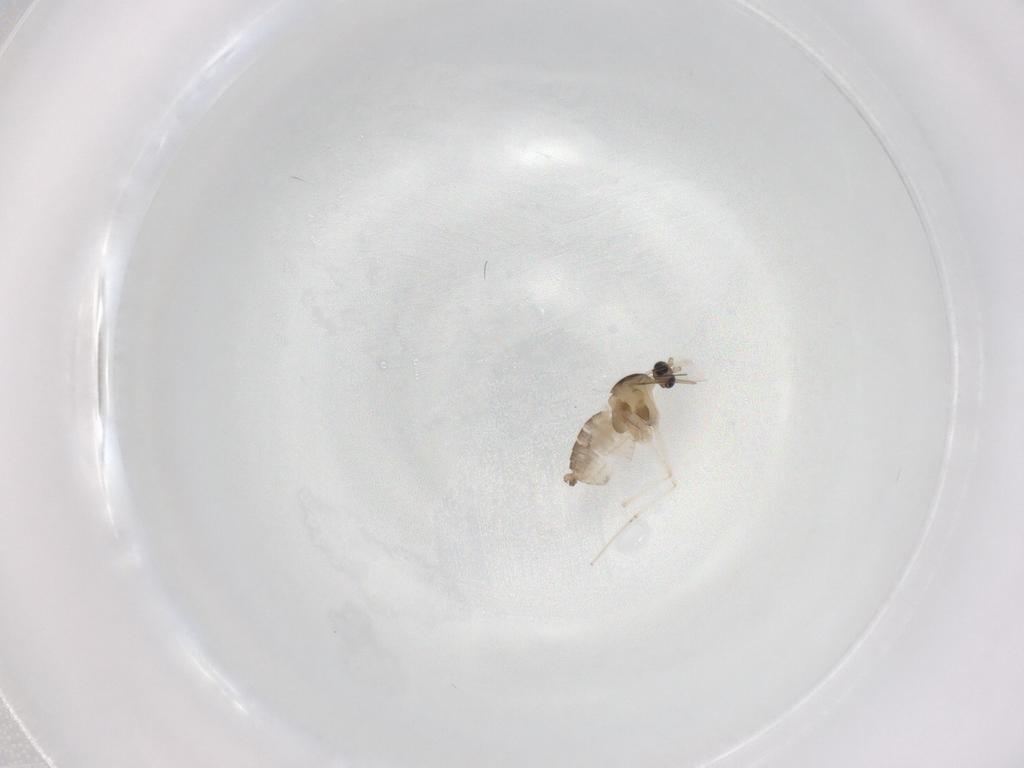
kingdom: Animalia
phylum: Arthropoda
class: Insecta
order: Diptera
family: Cecidomyiidae
